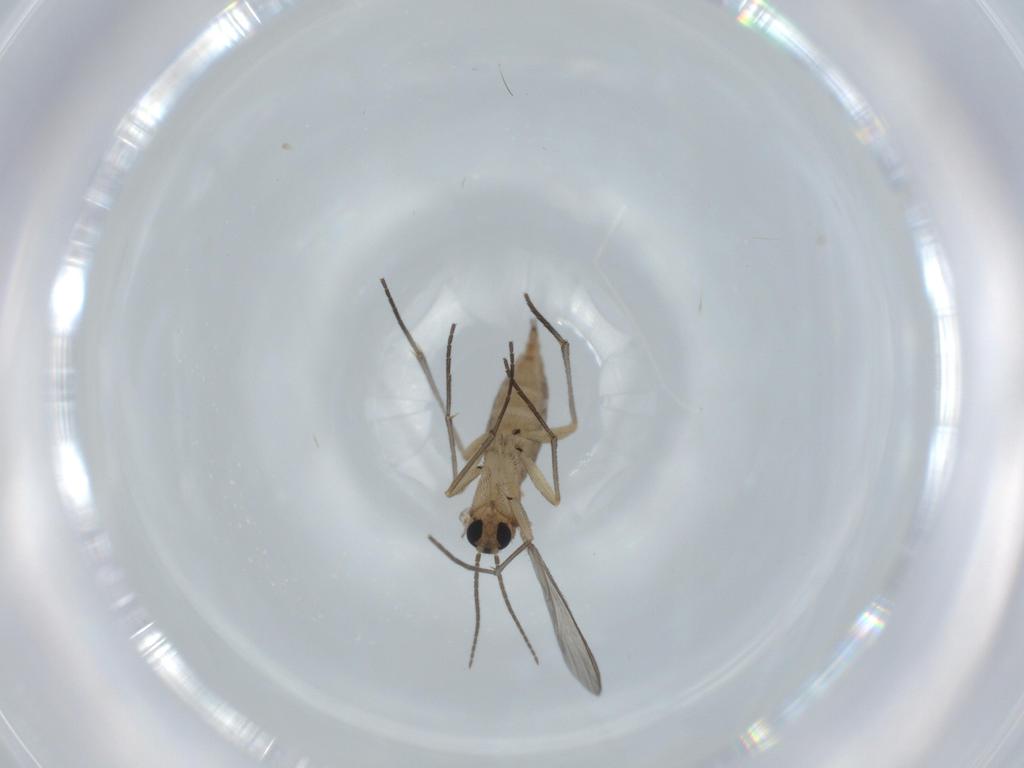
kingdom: Animalia
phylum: Arthropoda
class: Insecta
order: Diptera
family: Sciaridae
